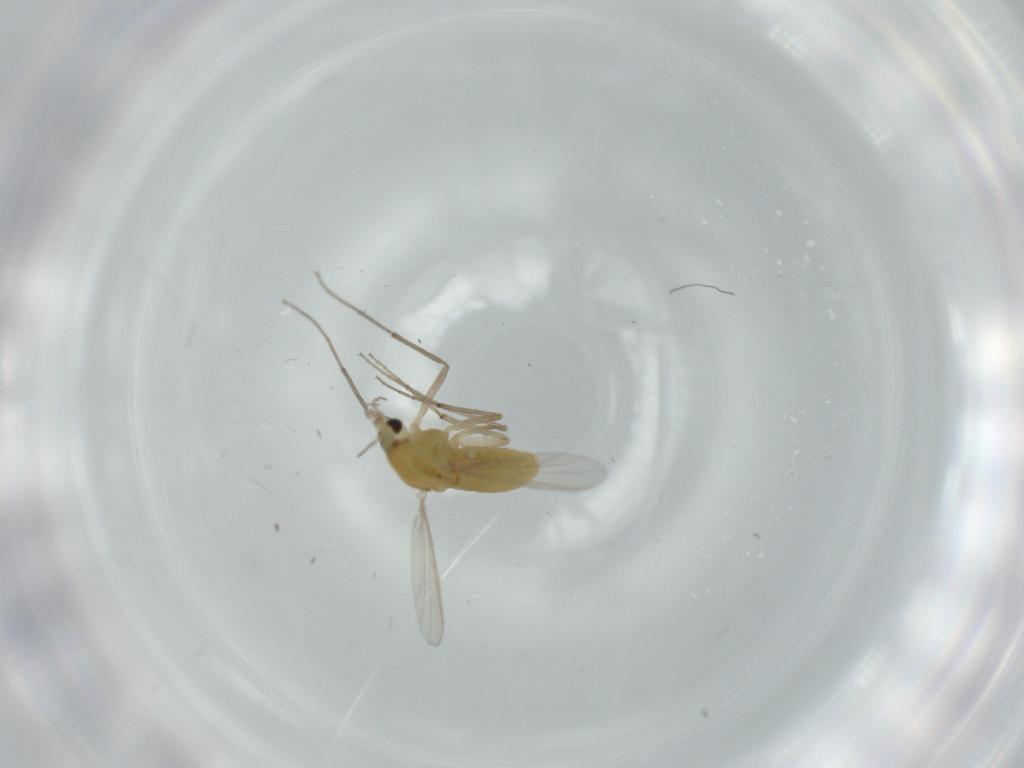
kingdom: Animalia
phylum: Arthropoda
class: Insecta
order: Diptera
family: Chironomidae
